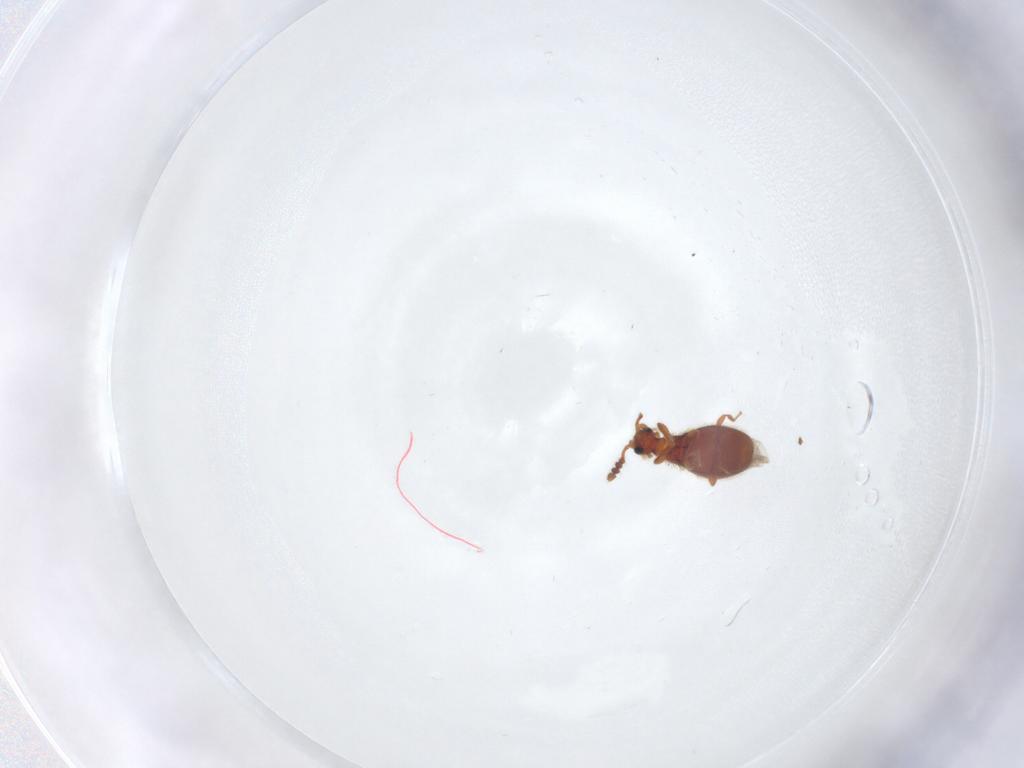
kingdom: Animalia
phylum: Arthropoda
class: Insecta
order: Coleoptera
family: Staphylinidae
